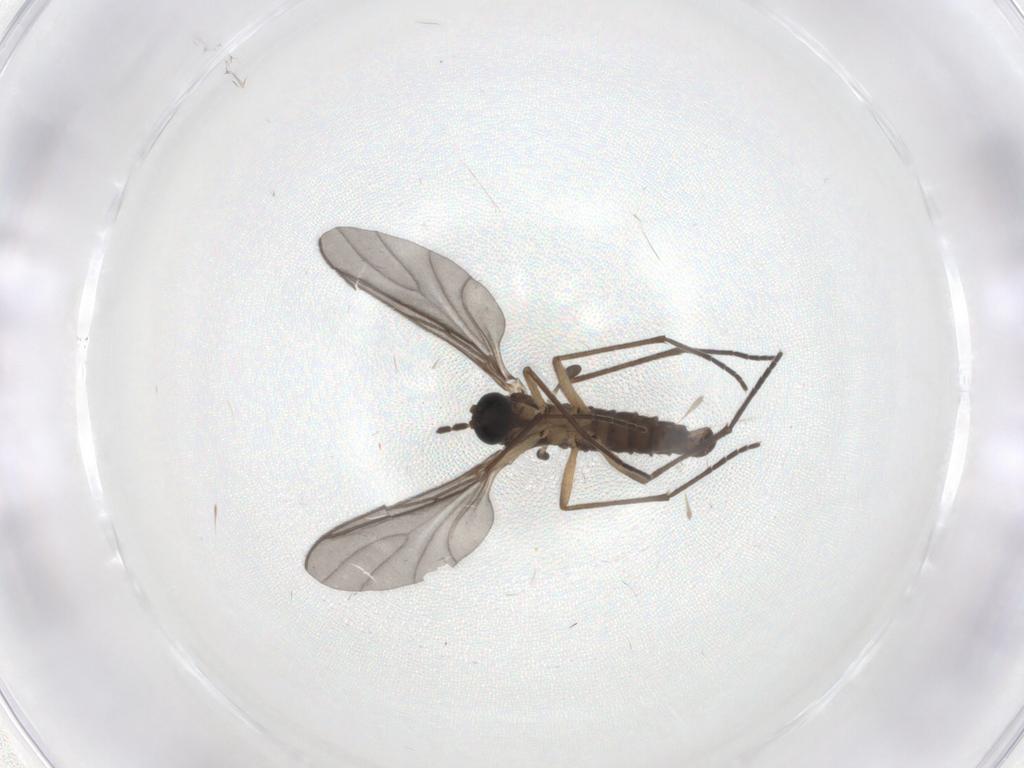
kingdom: Animalia
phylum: Arthropoda
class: Insecta
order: Diptera
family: Sciaridae
